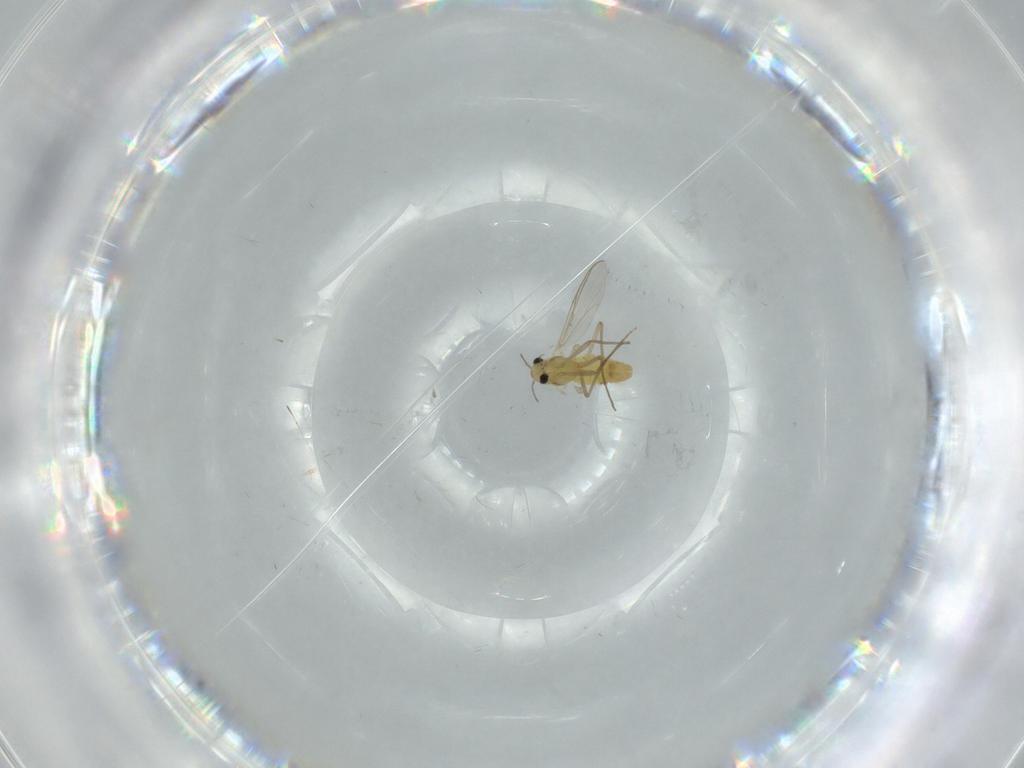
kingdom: Animalia
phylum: Arthropoda
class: Insecta
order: Diptera
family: Chironomidae
